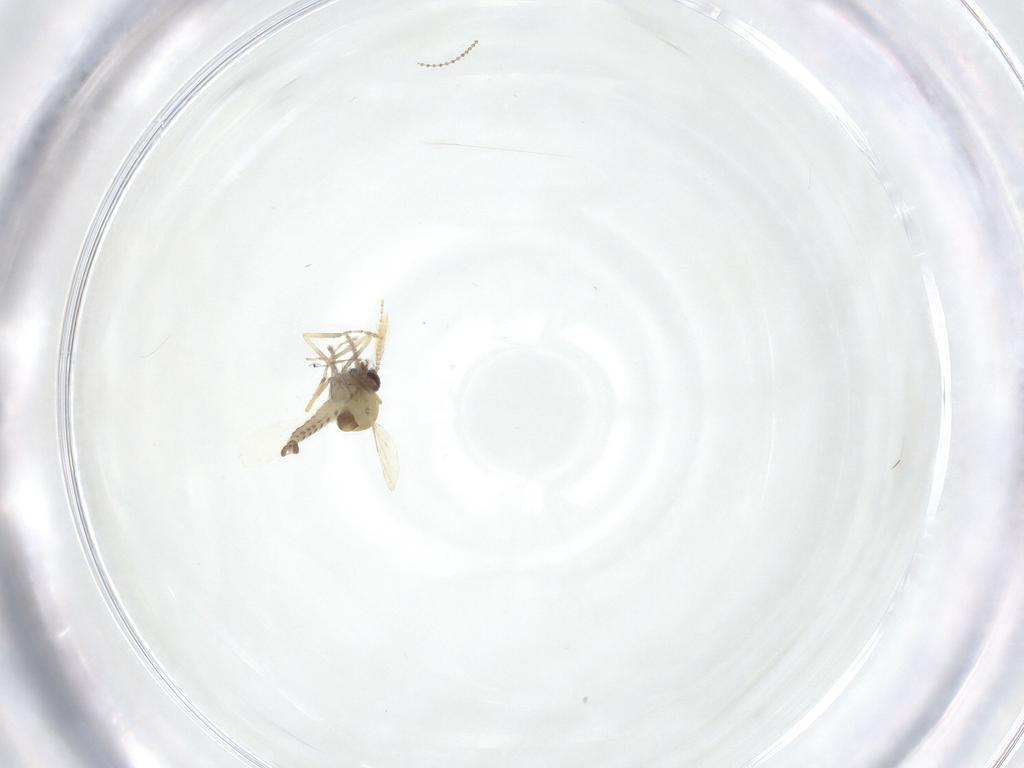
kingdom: Animalia
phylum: Arthropoda
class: Insecta
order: Diptera
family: Cecidomyiidae
